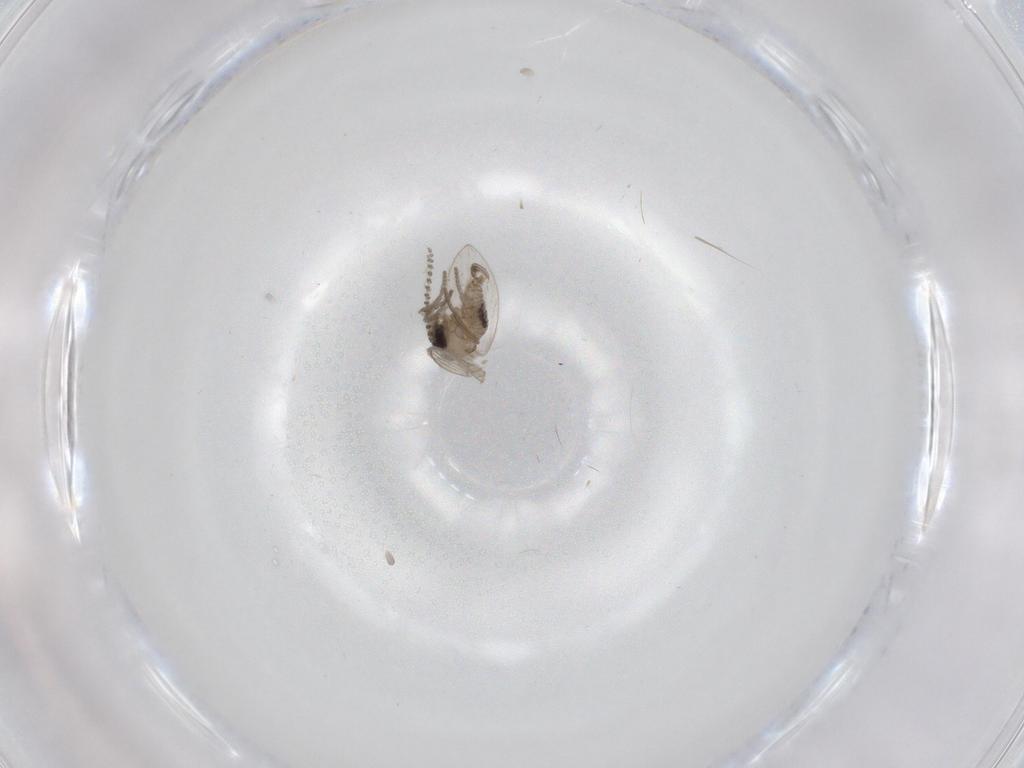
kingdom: Animalia
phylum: Arthropoda
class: Insecta
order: Diptera
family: Psychodidae
